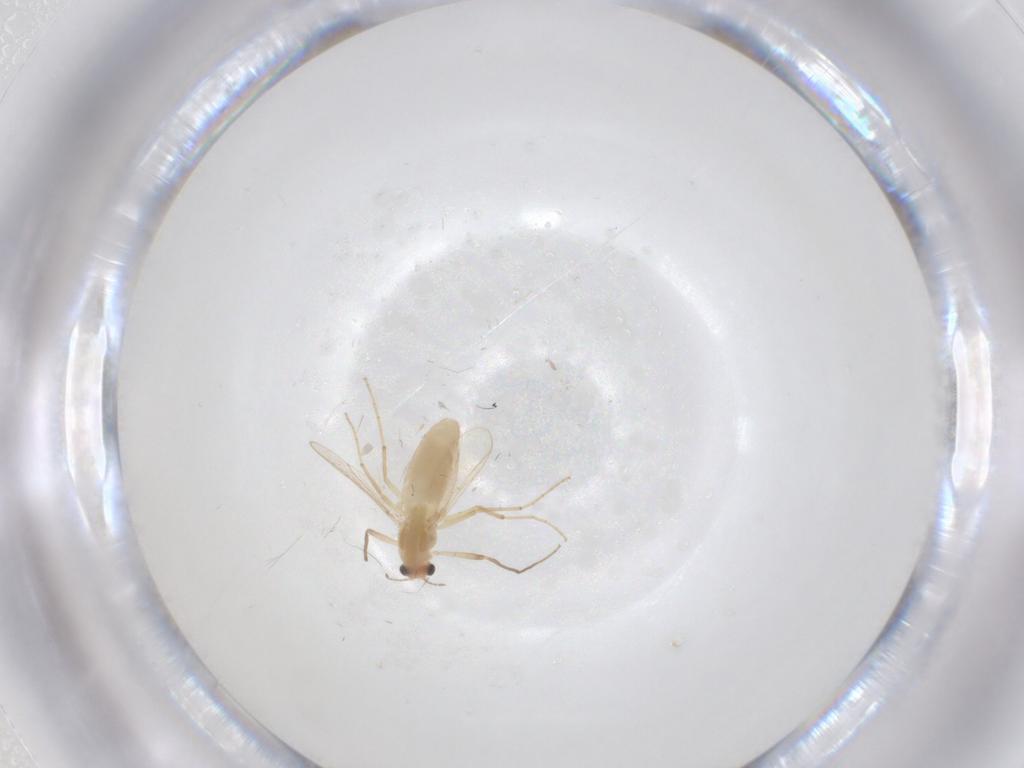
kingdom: Animalia
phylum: Arthropoda
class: Insecta
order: Diptera
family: Chironomidae
